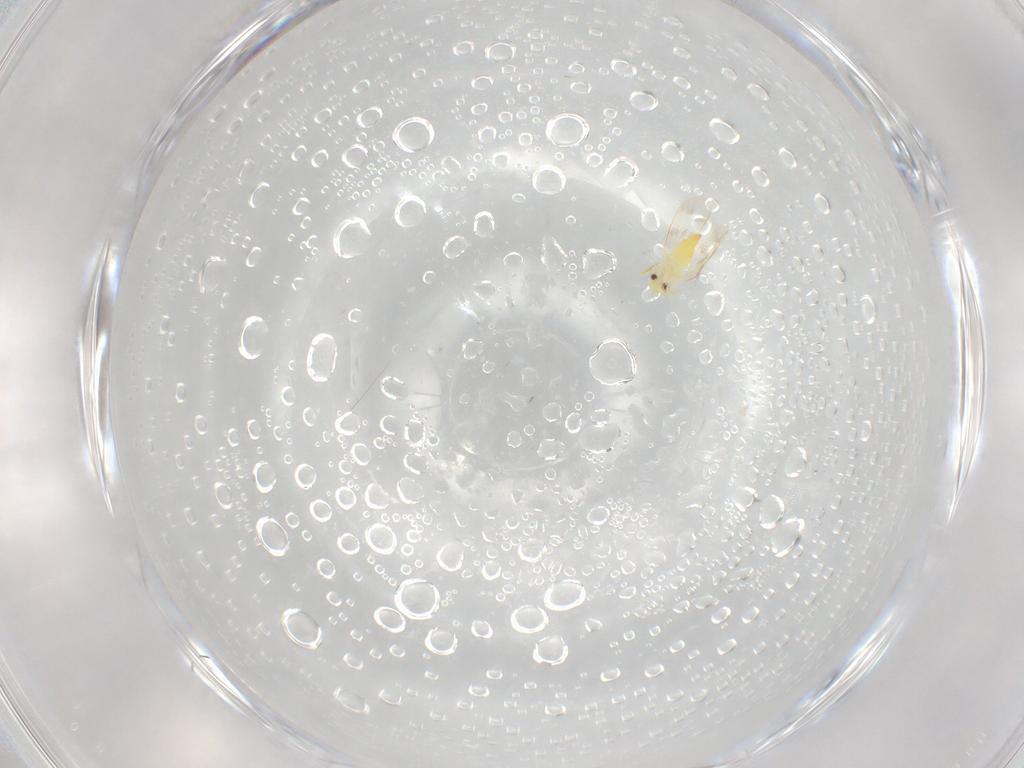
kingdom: Animalia
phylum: Arthropoda
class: Insecta
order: Hemiptera
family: Aleyrodidae
